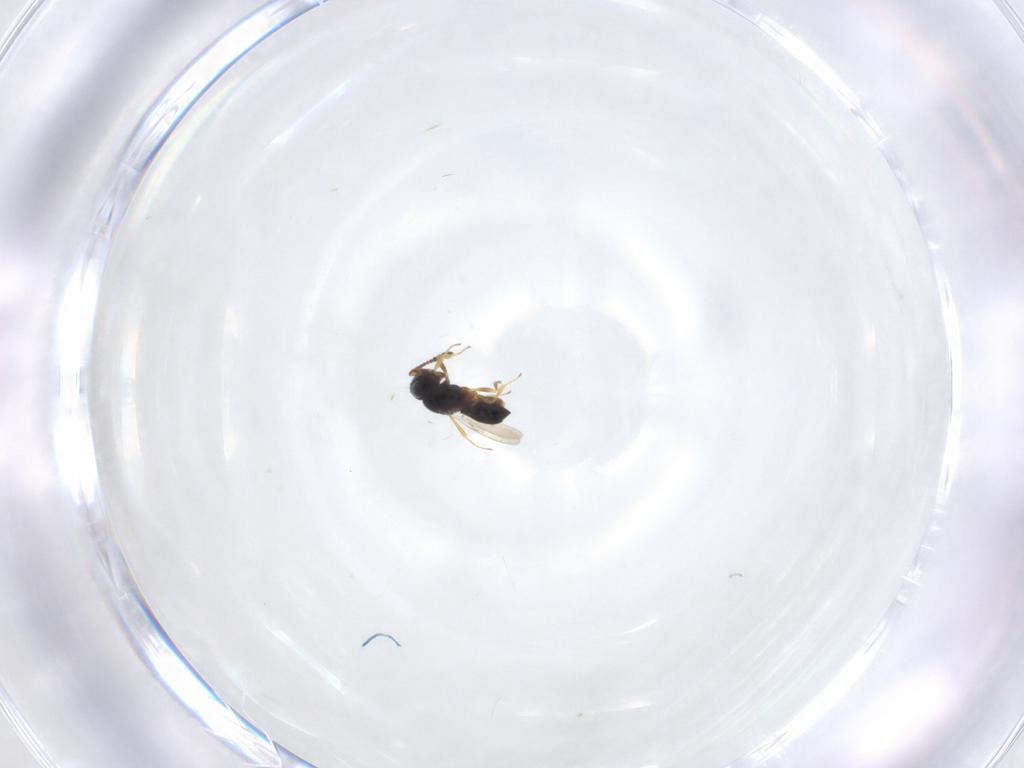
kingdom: Animalia
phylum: Arthropoda
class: Insecta
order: Hymenoptera
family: Scelionidae
